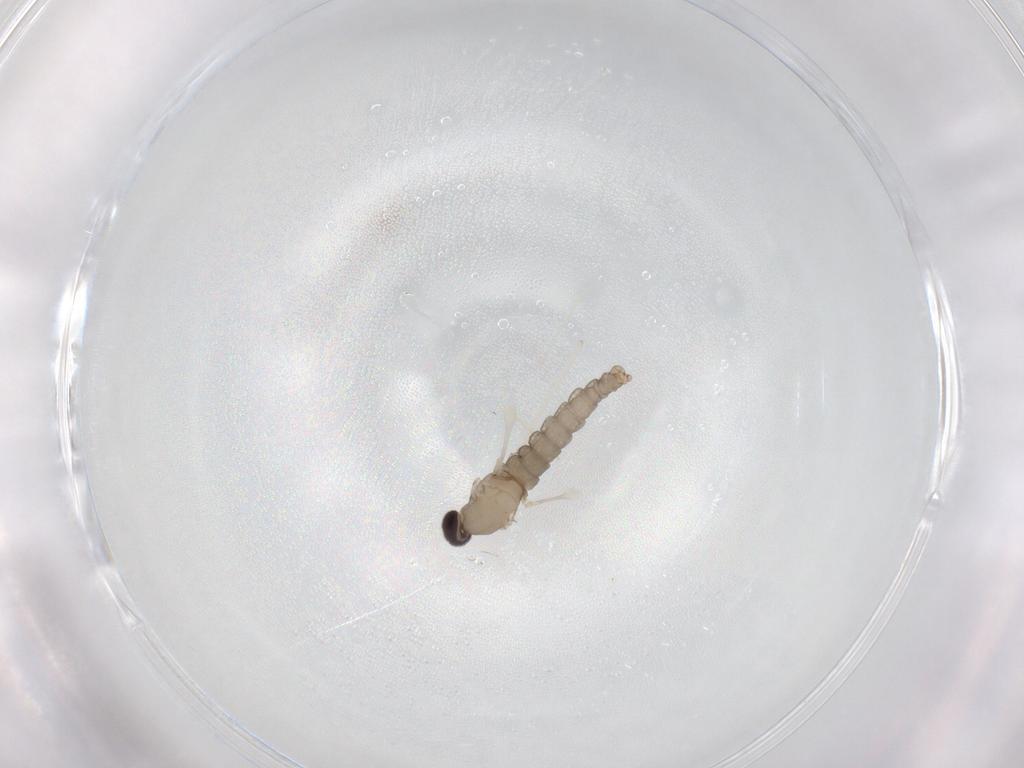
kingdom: Animalia
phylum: Arthropoda
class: Insecta
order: Diptera
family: Cecidomyiidae
